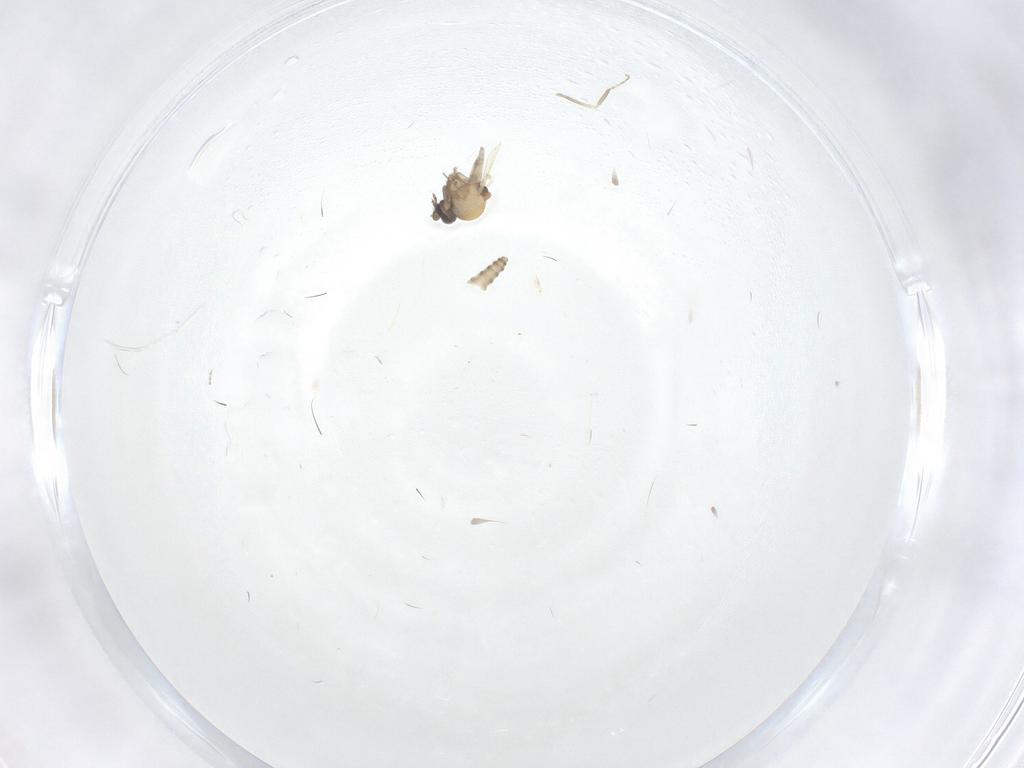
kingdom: Animalia
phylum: Arthropoda
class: Insecta
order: Diptera
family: Ceratopogonidae
